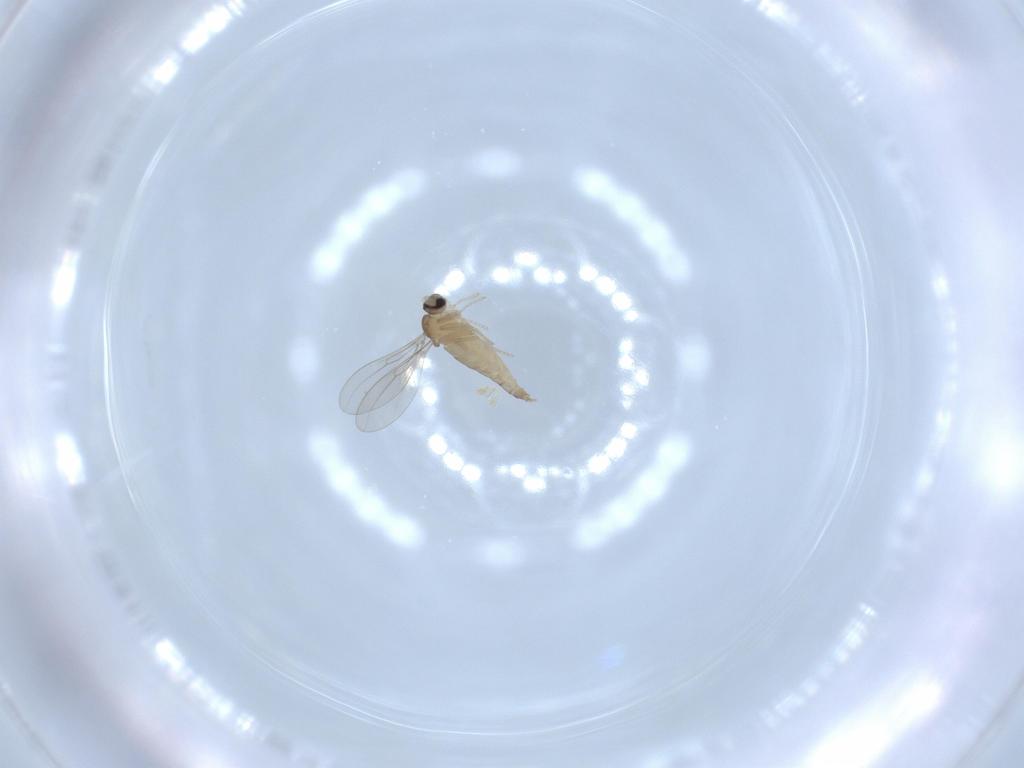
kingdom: Animalia
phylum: Arthropoda
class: Insecta
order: Diptera
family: Cecidomyiidae
